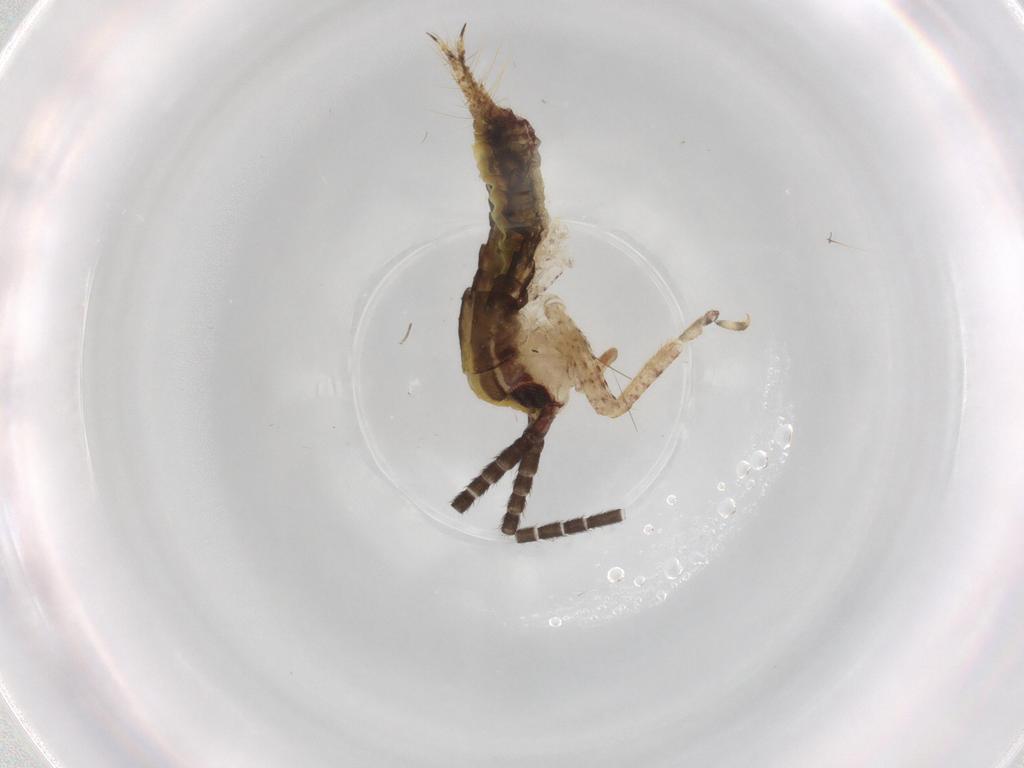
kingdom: Animalia
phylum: Arthropoda
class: Insecta
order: Orthoptera
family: Gryllidae
